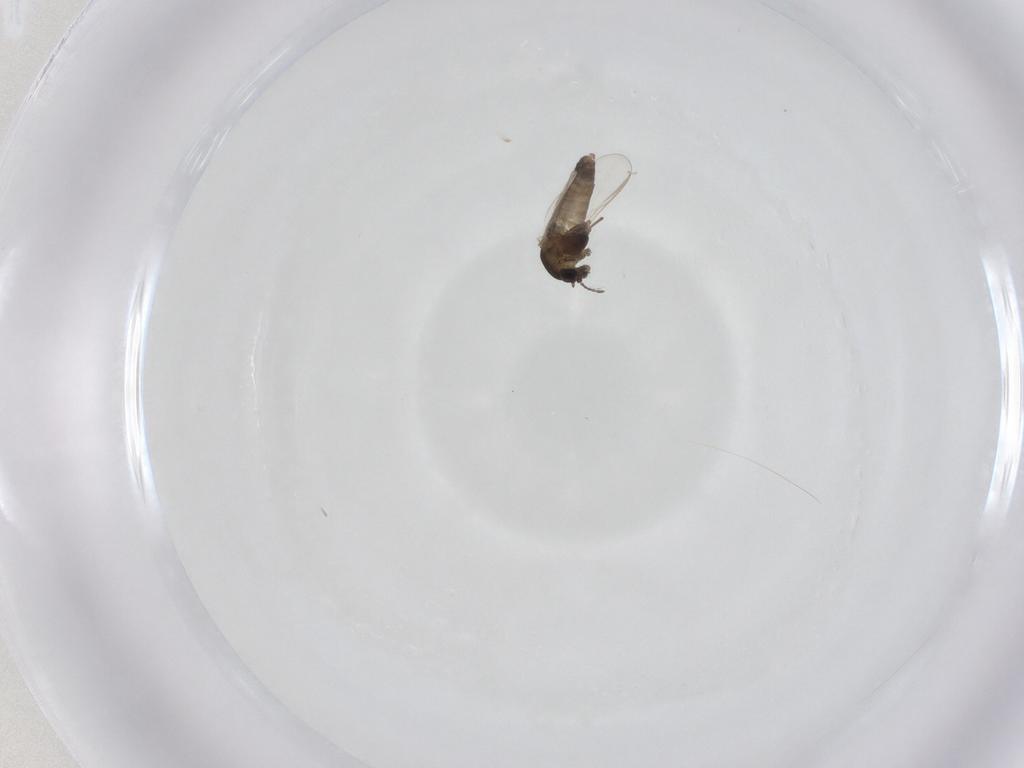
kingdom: Animalia
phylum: Arthropoda
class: Insecta
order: Diptera
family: Chironomidae
